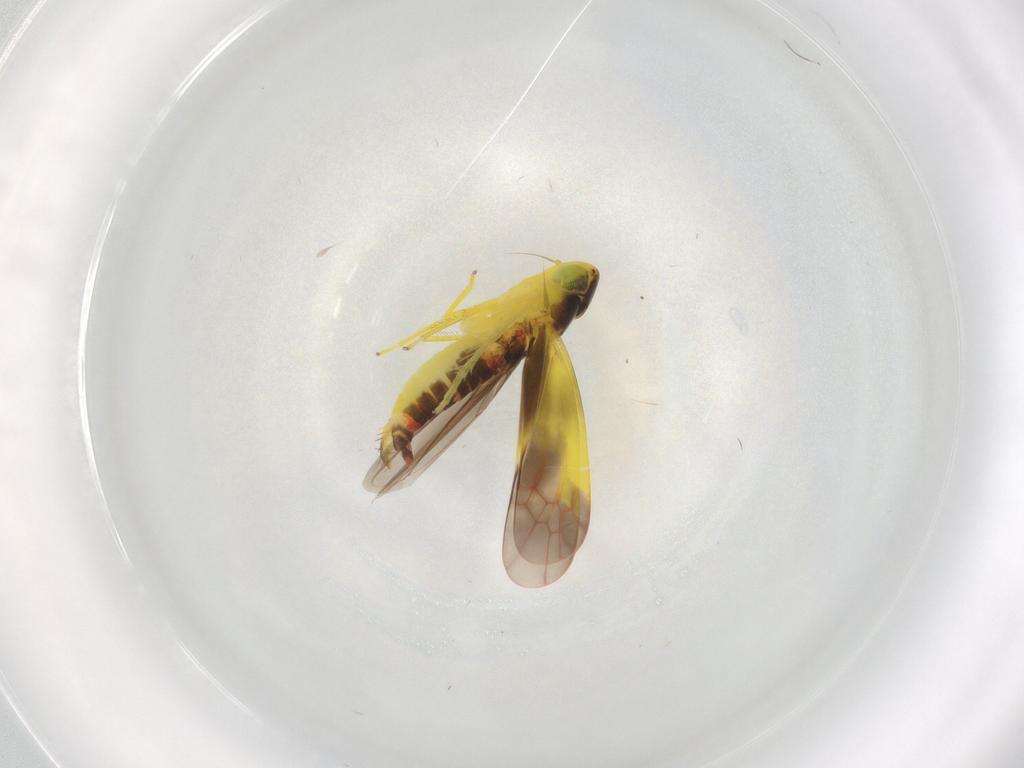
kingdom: Animalia
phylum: Arthropoda
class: Insecta
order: Hemiptera
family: Cicadellidae
